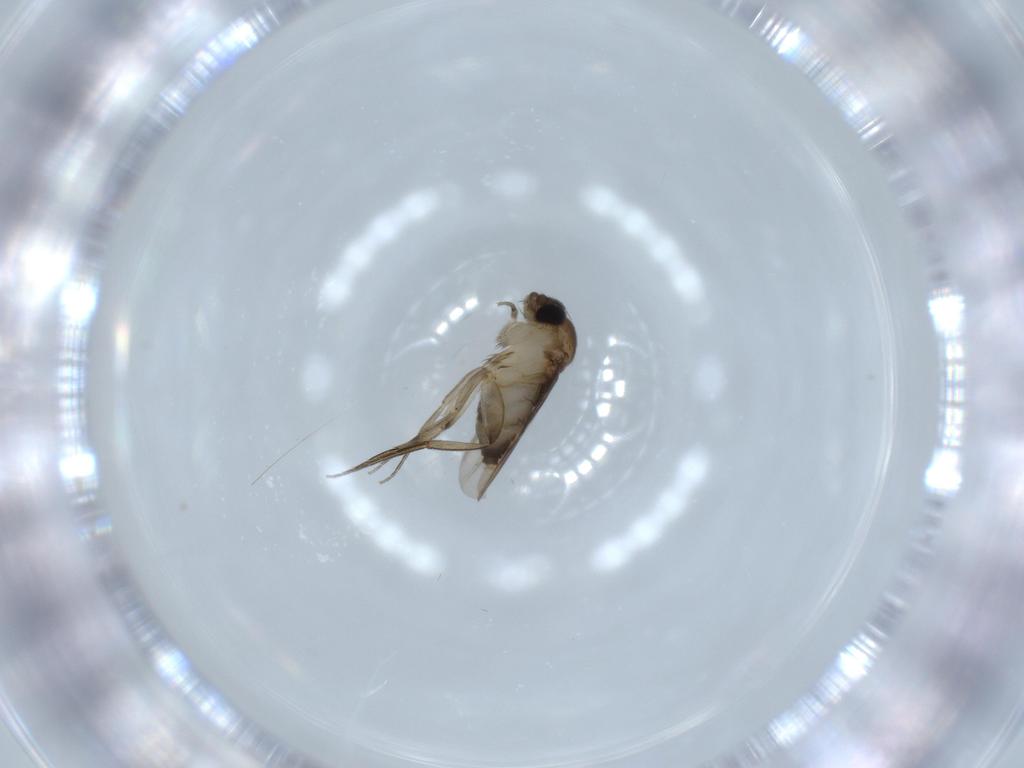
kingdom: Animalia
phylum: Arthropoda
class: Insecta
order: Diptera
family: Phoridae
